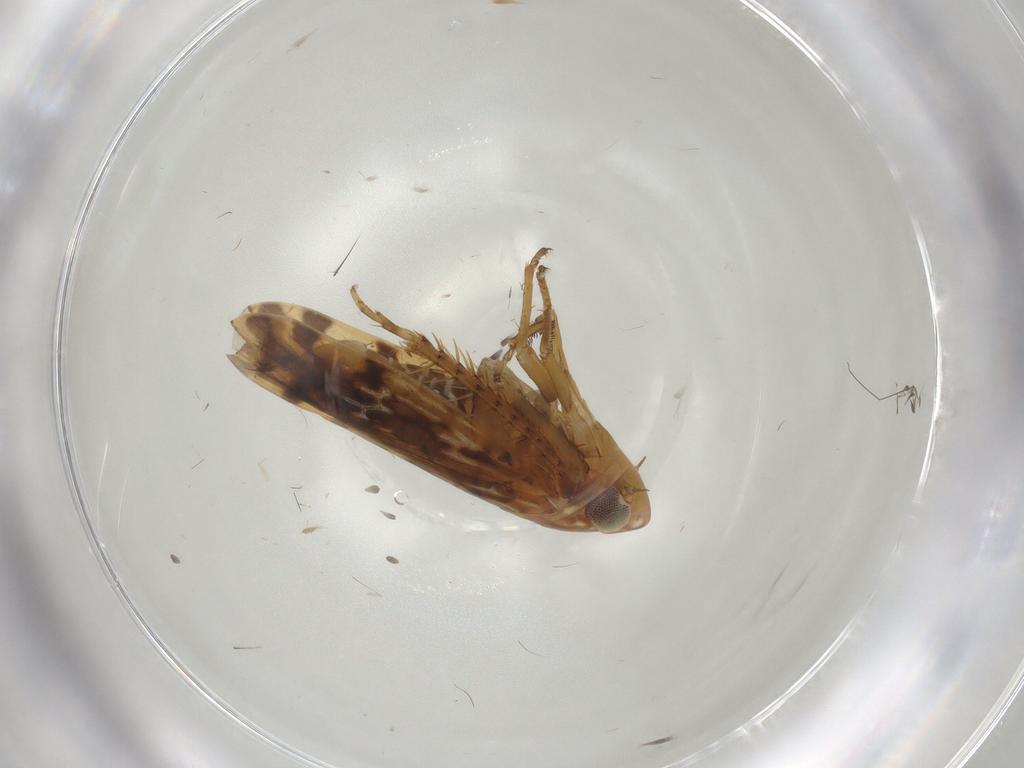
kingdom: Animalia
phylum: Arthropoda
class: Insecta
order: Hemiptera
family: Cicadellidae
